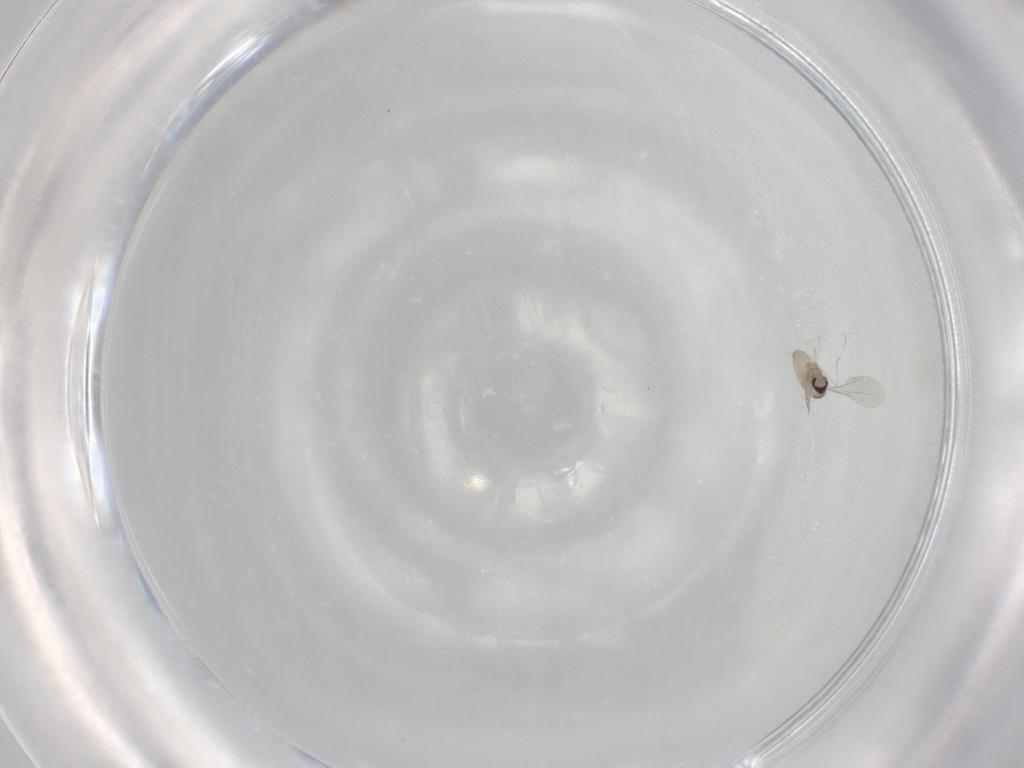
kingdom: Animalia
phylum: Arthropoda
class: Insecta
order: Diptera
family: Cecidomyiidae
